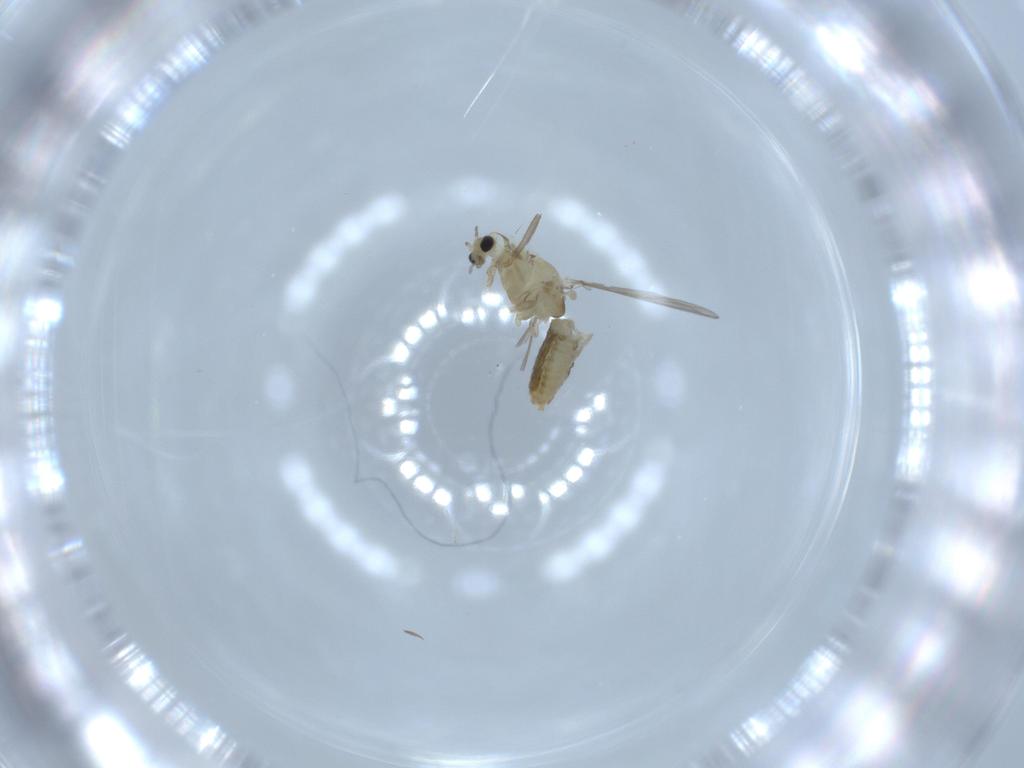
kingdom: Animalia
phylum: Arthropoda
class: Insecta
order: Diptera
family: Chironomidae
